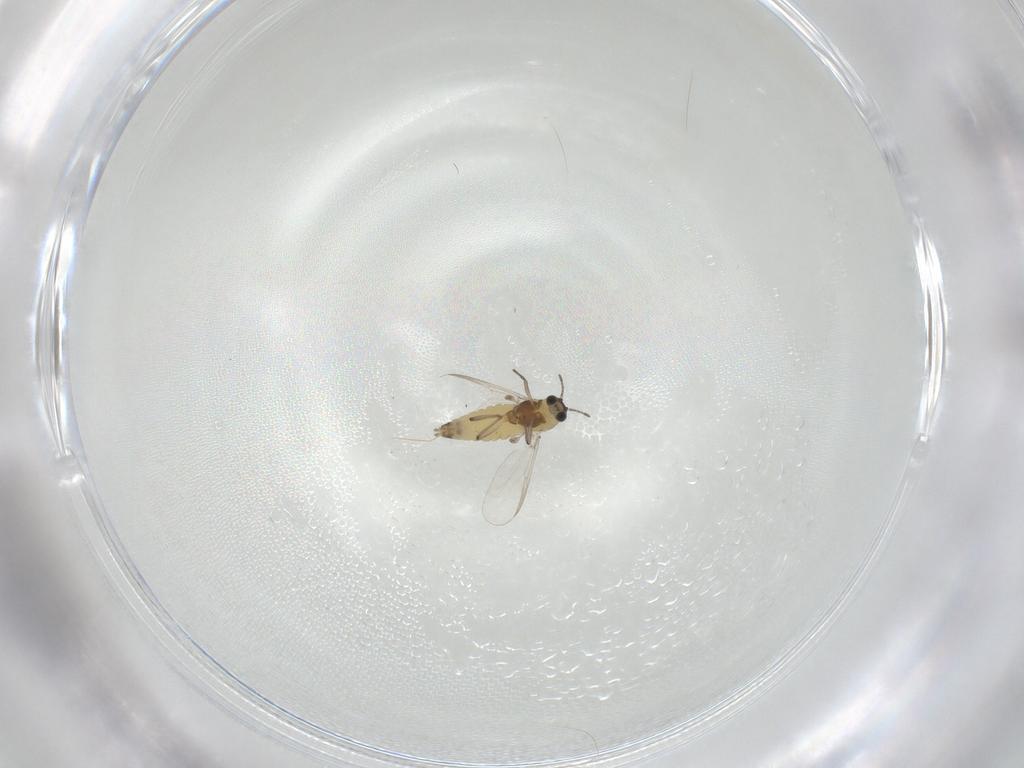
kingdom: Animalia
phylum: Arthropoda
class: Insecta
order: Diptera
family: Chironomidae
